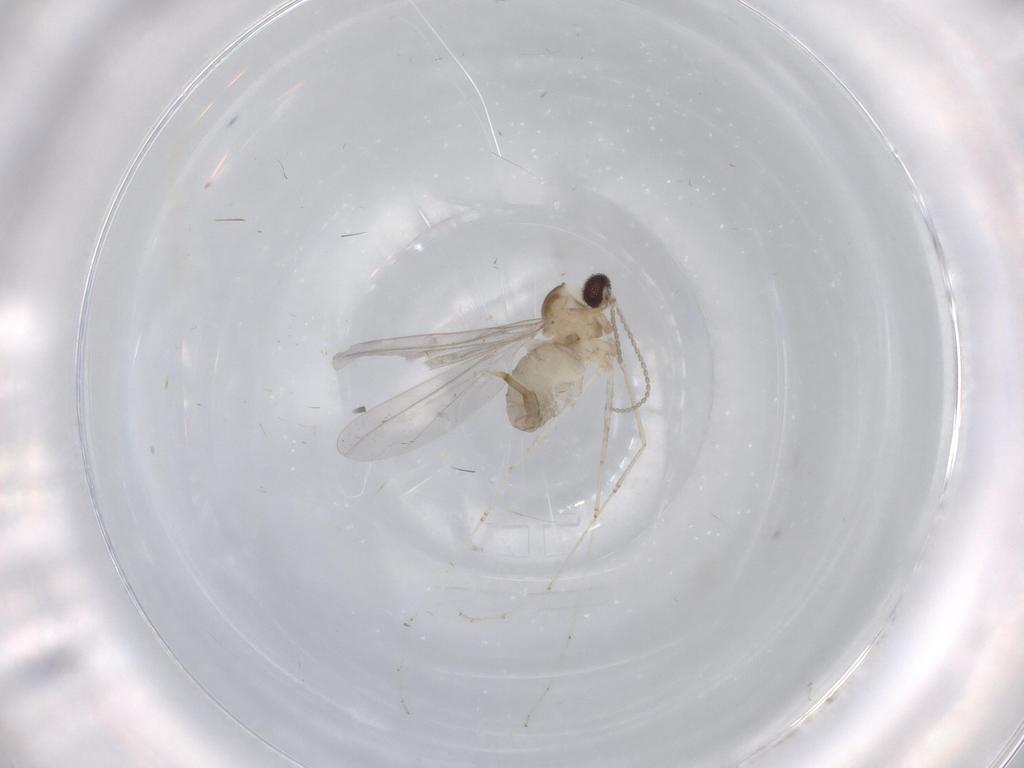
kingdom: Animalia
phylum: Arthropoda
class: Insecta
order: Diptera
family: Cecidomyiidae
